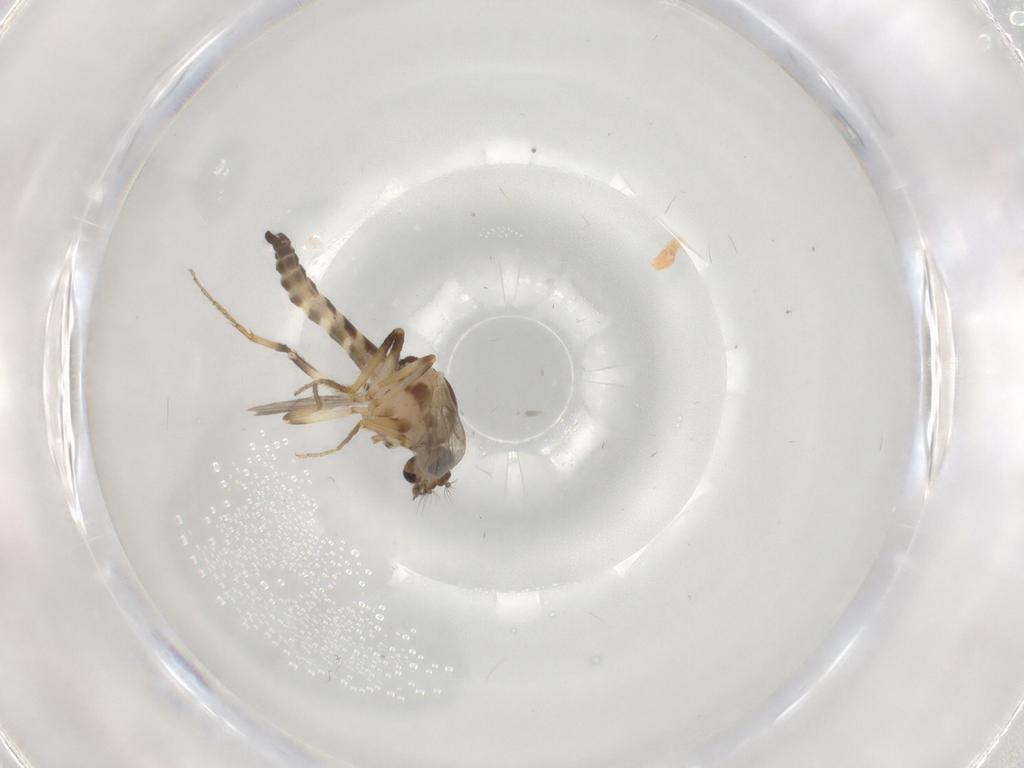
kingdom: Animalia
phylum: Arthropoda
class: Insecta
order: Diptera
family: Ceratopogonidae
